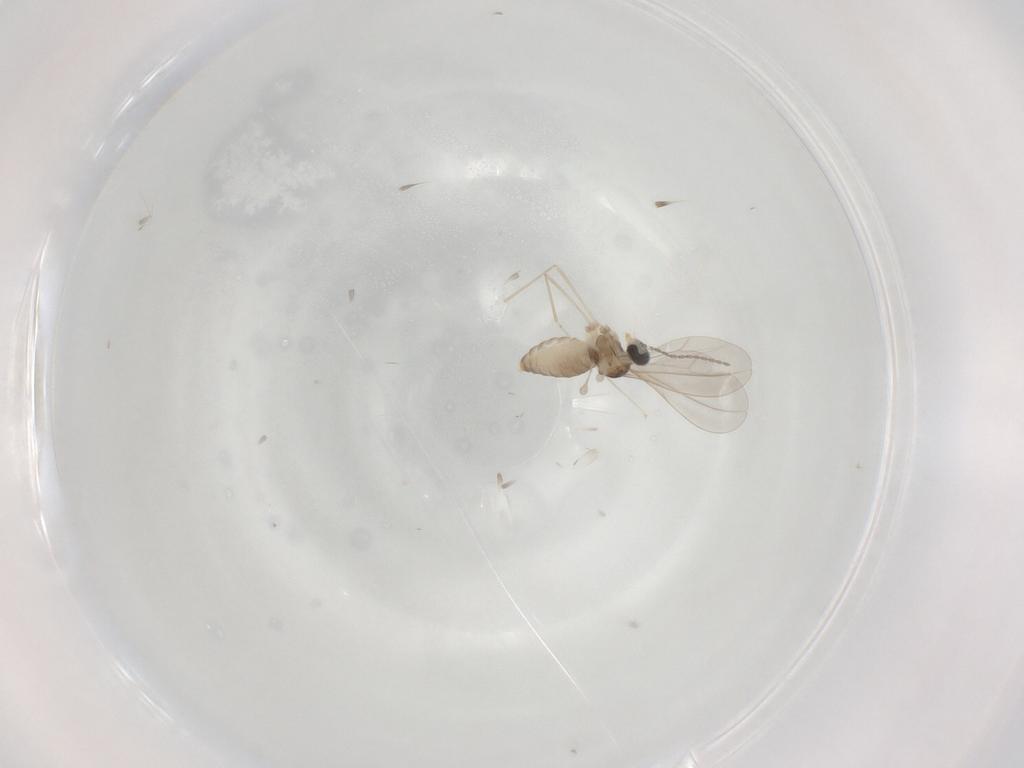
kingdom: Animalia
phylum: Arthropoda
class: Insecta
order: Diptera
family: Cecidomyiidae
